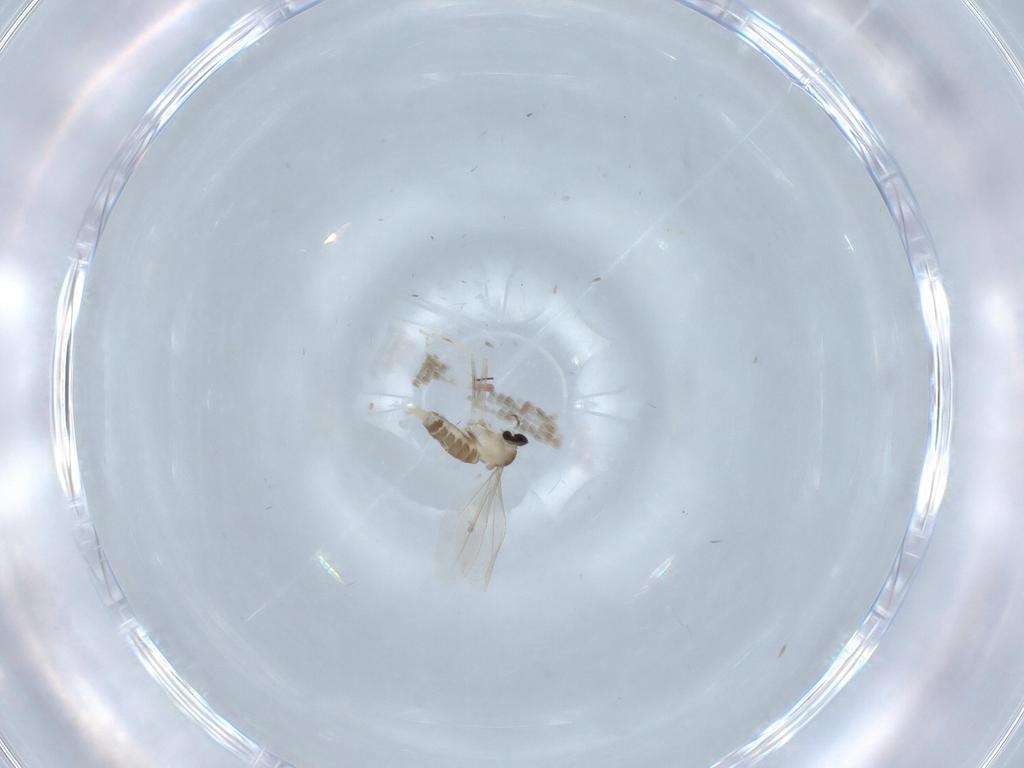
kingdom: Animalia
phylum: Arthropoda
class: Insecta
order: Diptera
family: Cecidomyiidae
